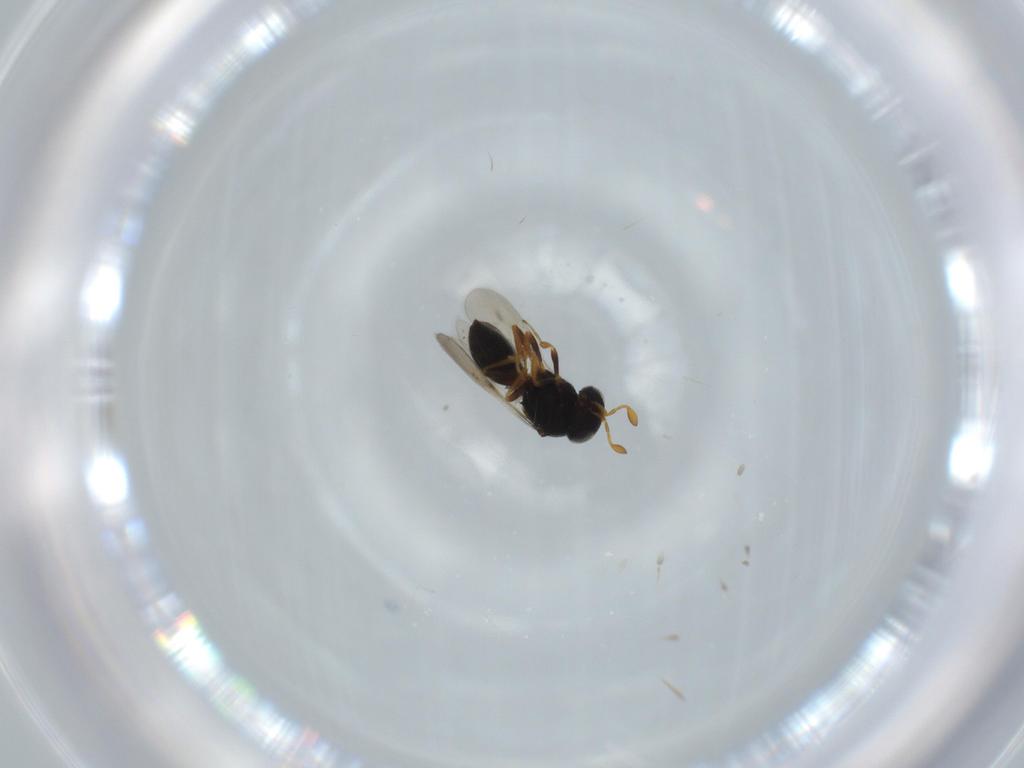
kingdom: Animalia
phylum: Arthropoda
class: Insecta
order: Hymenoptera
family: Scelionidae
